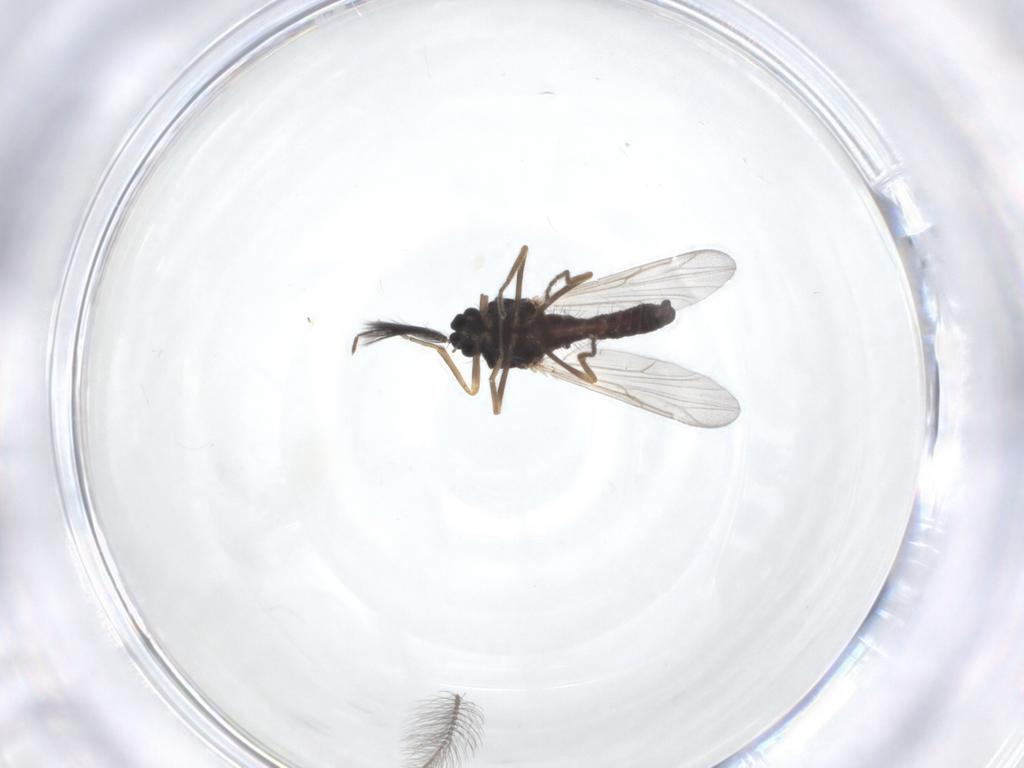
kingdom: Animalia
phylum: Arthropoda
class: Insecta
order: Diptera
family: Ceratopogonidae
